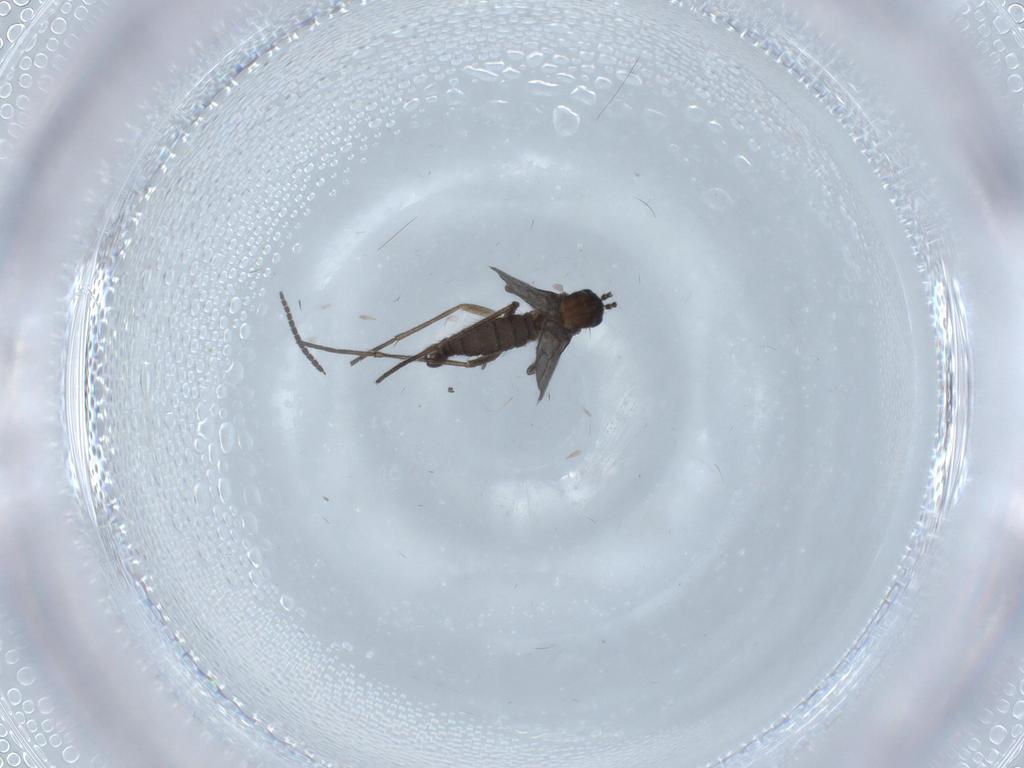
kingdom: Animalia
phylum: Arthropoda
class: Insecta
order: Diptera
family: Sciaridae
